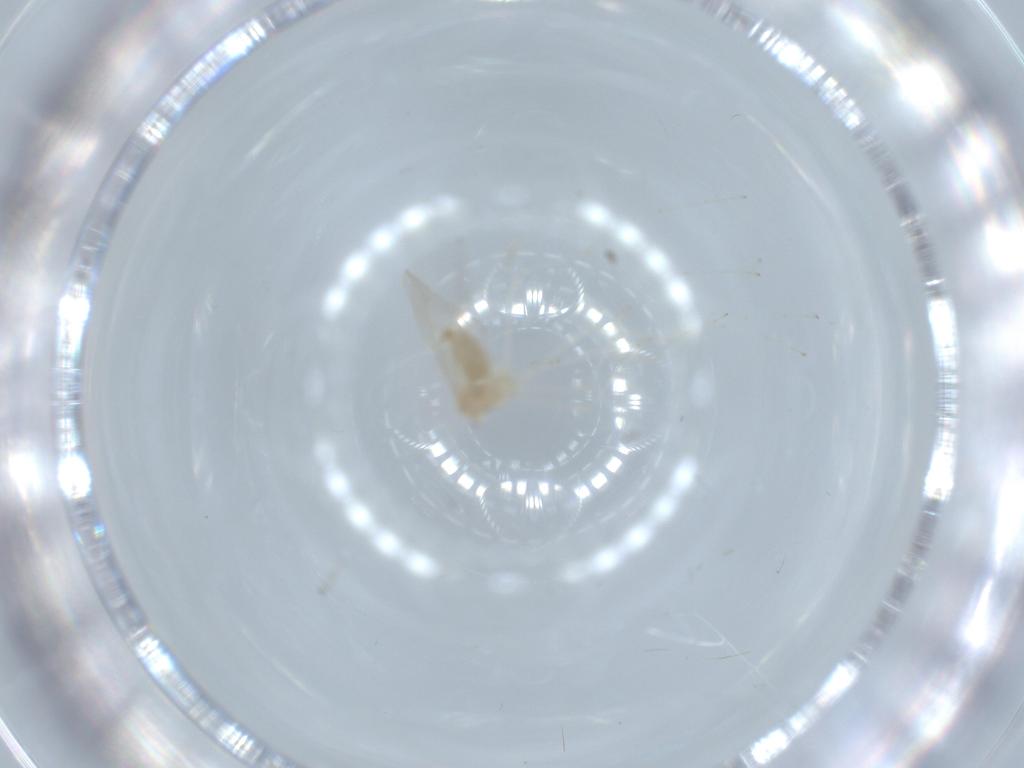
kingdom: Animalia
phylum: Arthropoda
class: Insecta
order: Diptera
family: Cecidomyiidae
